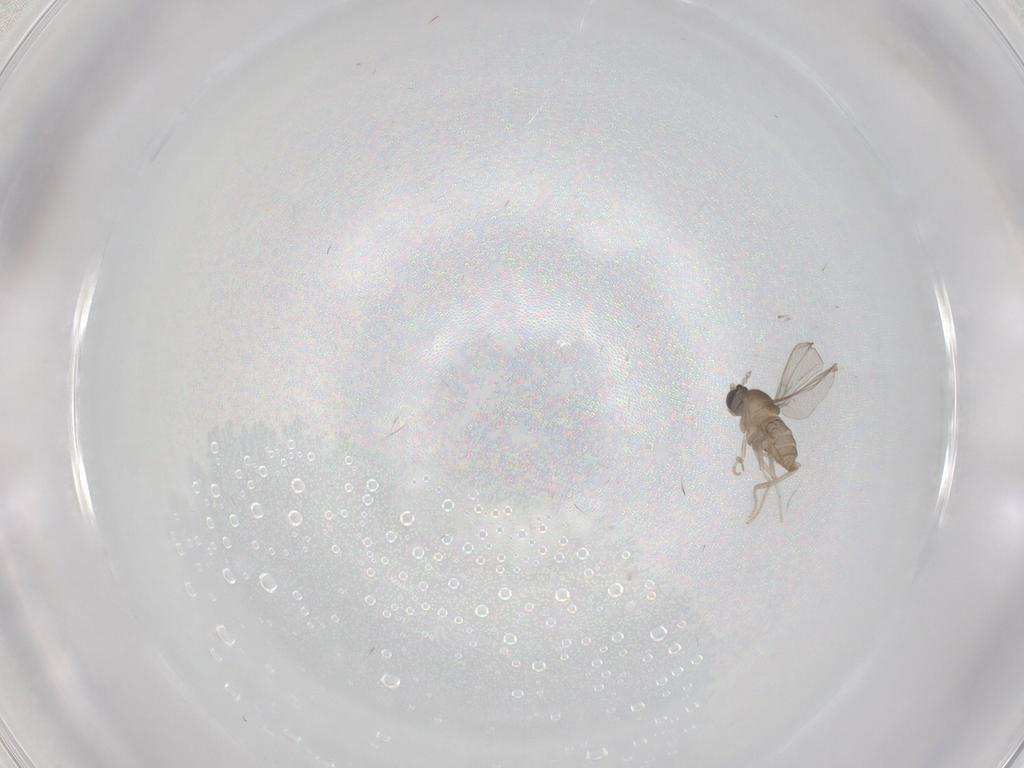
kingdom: Animalia
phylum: Arthropoda
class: Insecta
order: Diptera
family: Cecidomyiidae
